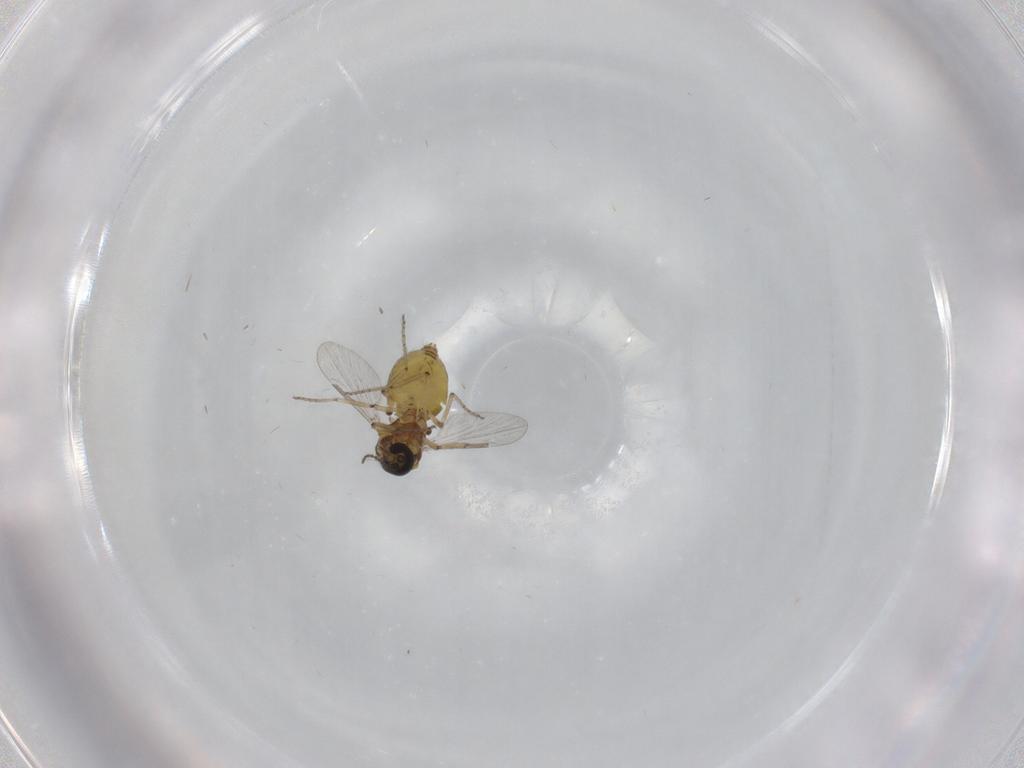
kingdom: Animalia
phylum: Arthropoda
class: Insecta
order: Diptera
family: Ceratopogonidae
